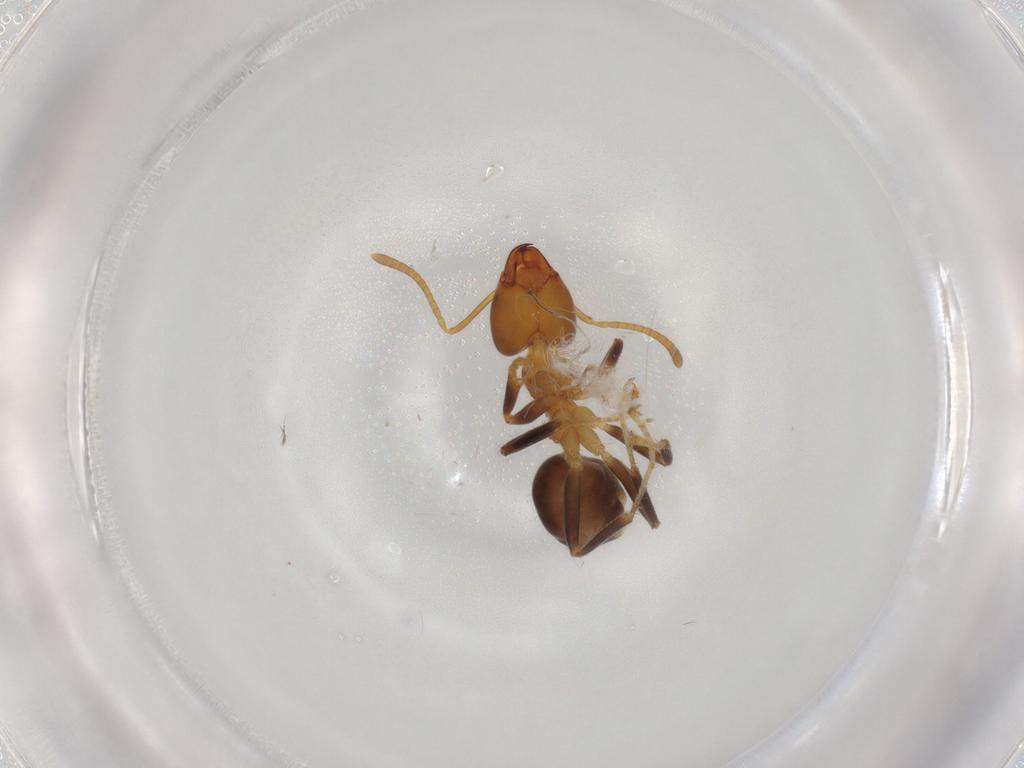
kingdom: Animalia
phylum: Arthropoda
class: Insecta
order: Hymenoptera
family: Formicidae
